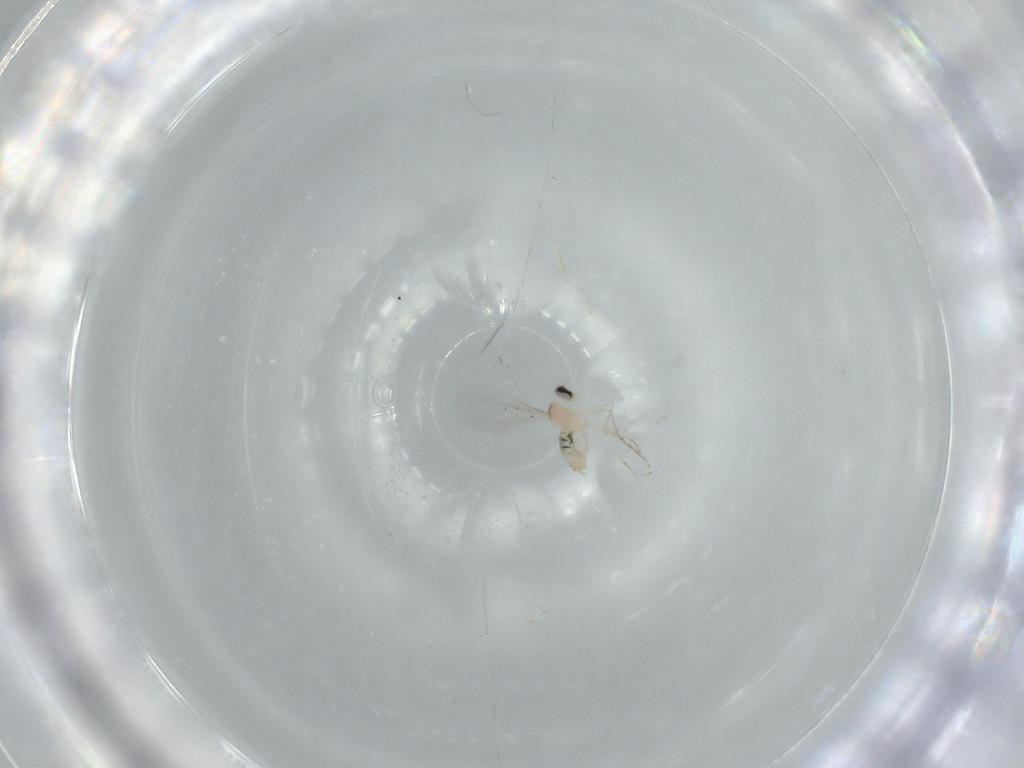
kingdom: Animalia
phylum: Arthropoda
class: Insecta
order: Diptera
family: Cecidomyiidae
